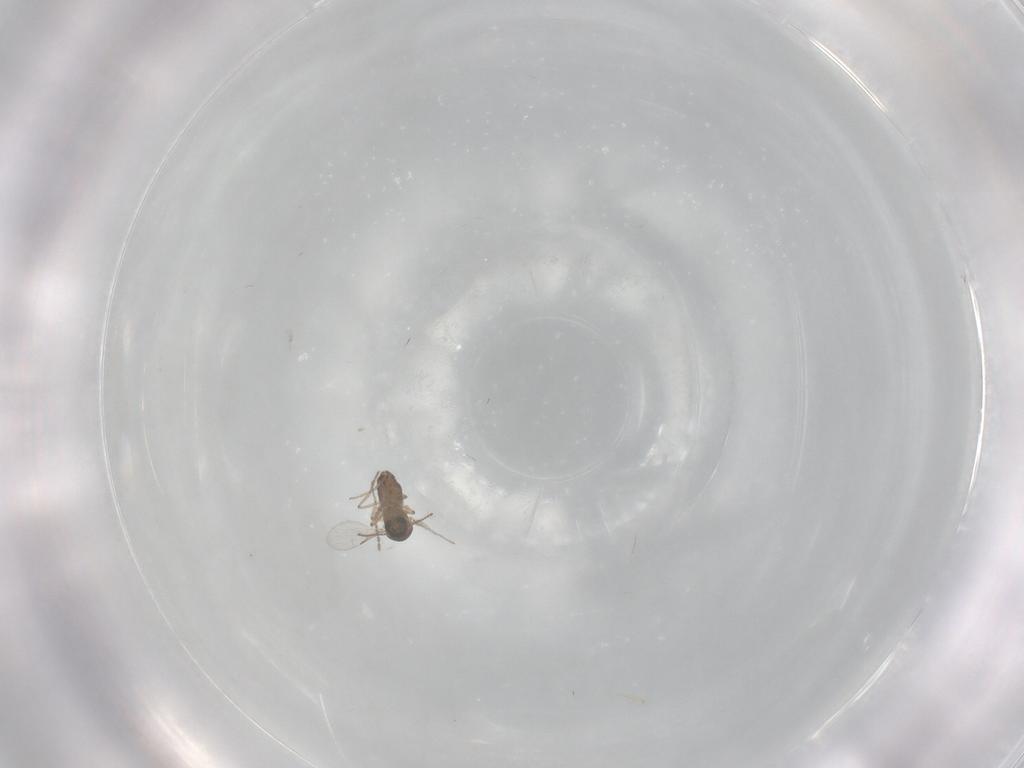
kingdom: Animalia
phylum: Arthropoda
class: Insecta
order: Diptera
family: Ceratopogonidae
